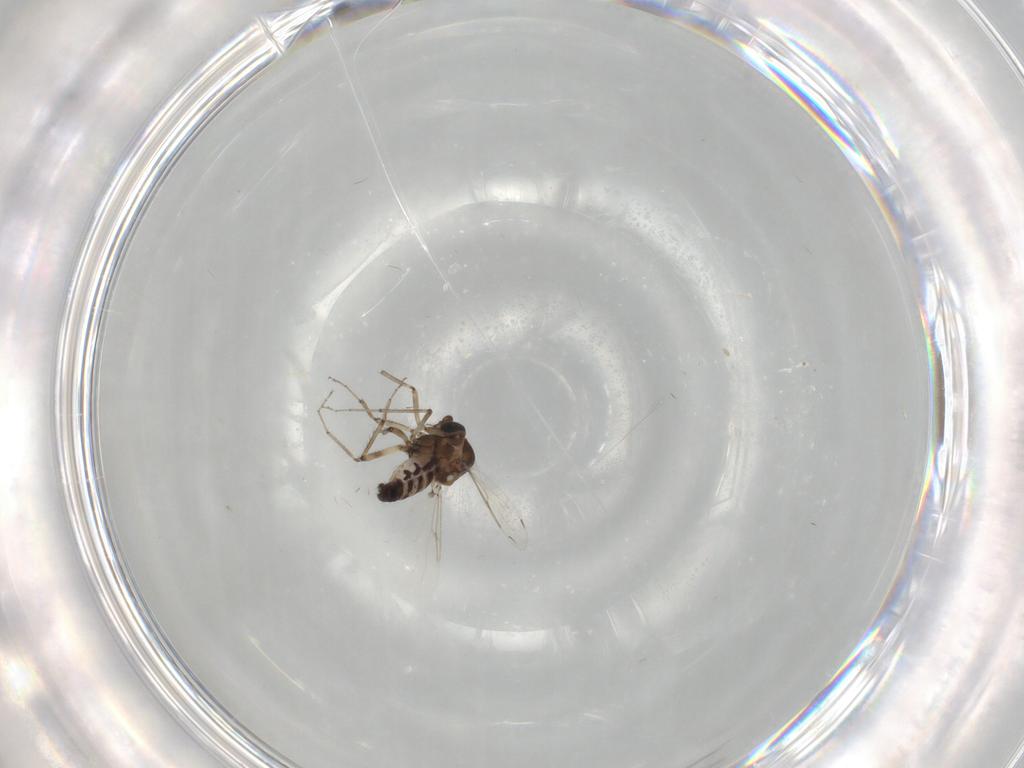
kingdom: Animalia
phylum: Arthropoda
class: Insecta
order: Diptera
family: Ceratopogonidae
